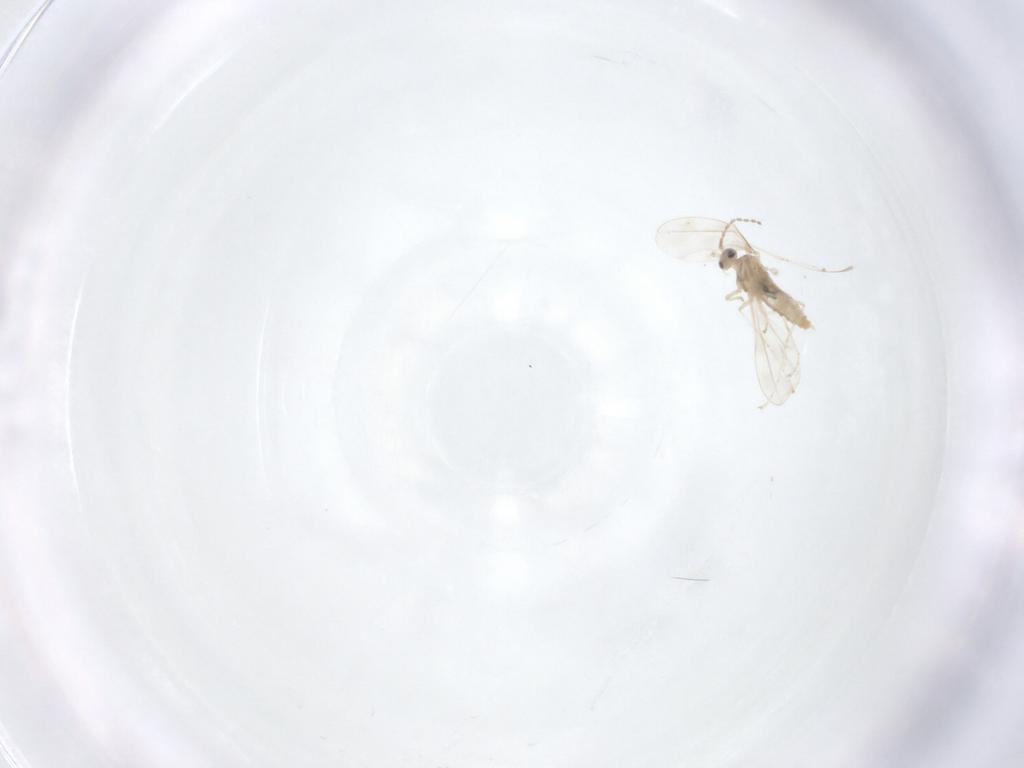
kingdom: Animalia
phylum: Arthropoda
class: Insecta
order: Diptera
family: Cecidomyiidae
